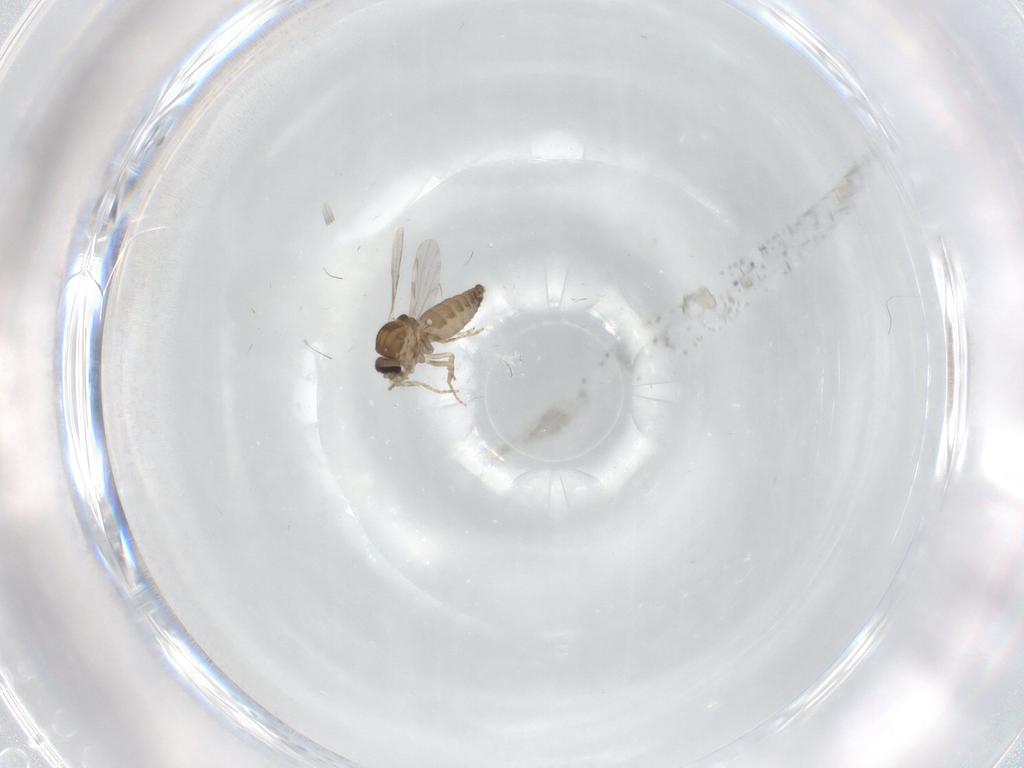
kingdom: Animalia
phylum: Arthropoda
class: Insecta
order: Diptera
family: Ceratopogonidae
